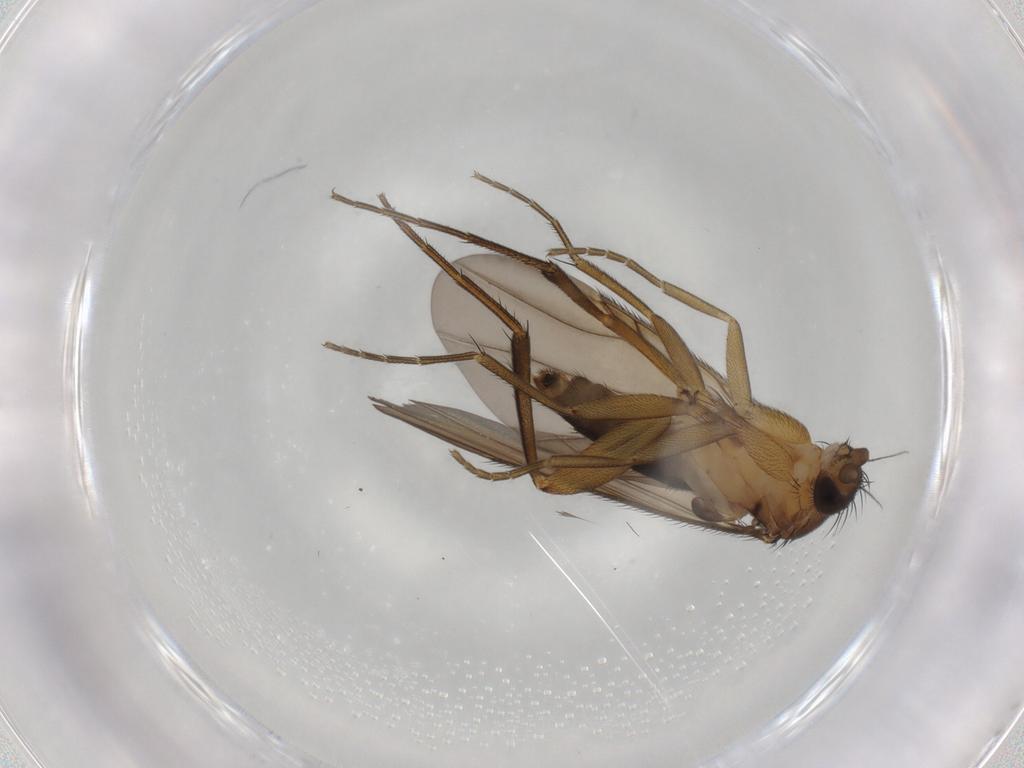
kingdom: Animalia
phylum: Arthropoda
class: Insecta
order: Diptera
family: Phoridae
